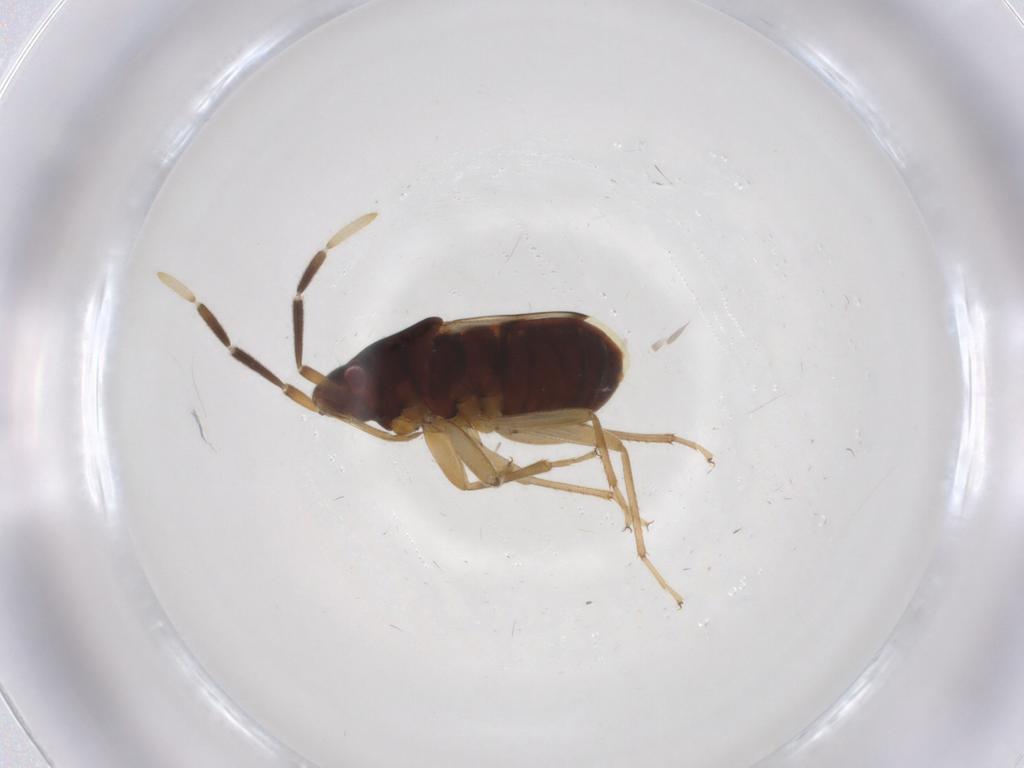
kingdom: Animalia
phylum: Arthropoda
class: Insecta
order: Hemiptera
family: Rhyparochromidae
